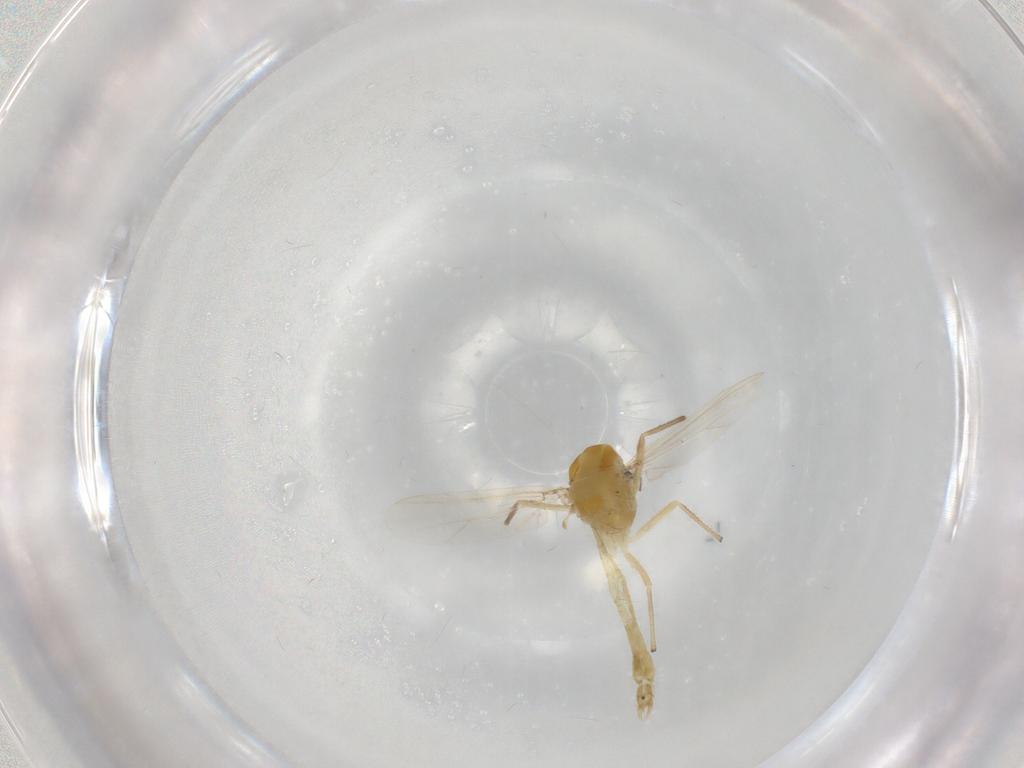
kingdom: Animalia
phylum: Arthropoda
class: Insecta
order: Diptera
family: Chironomidae
